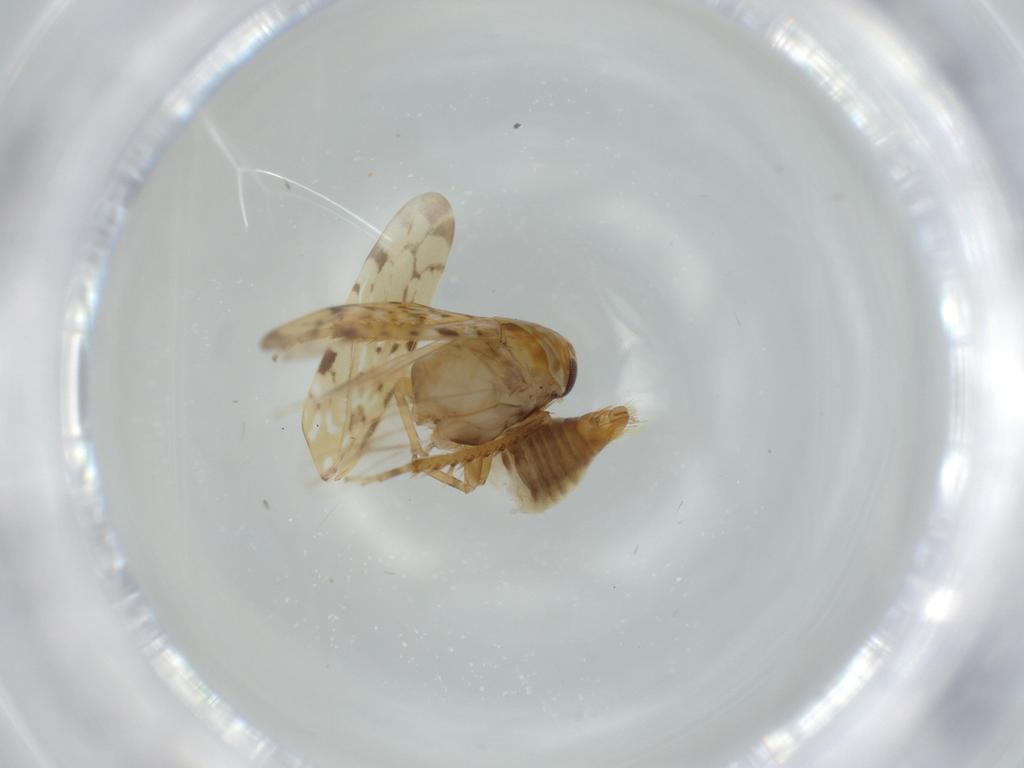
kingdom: Animalia
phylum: Arthropoda
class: Insecta
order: Hemiptera
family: Cicadellidae
